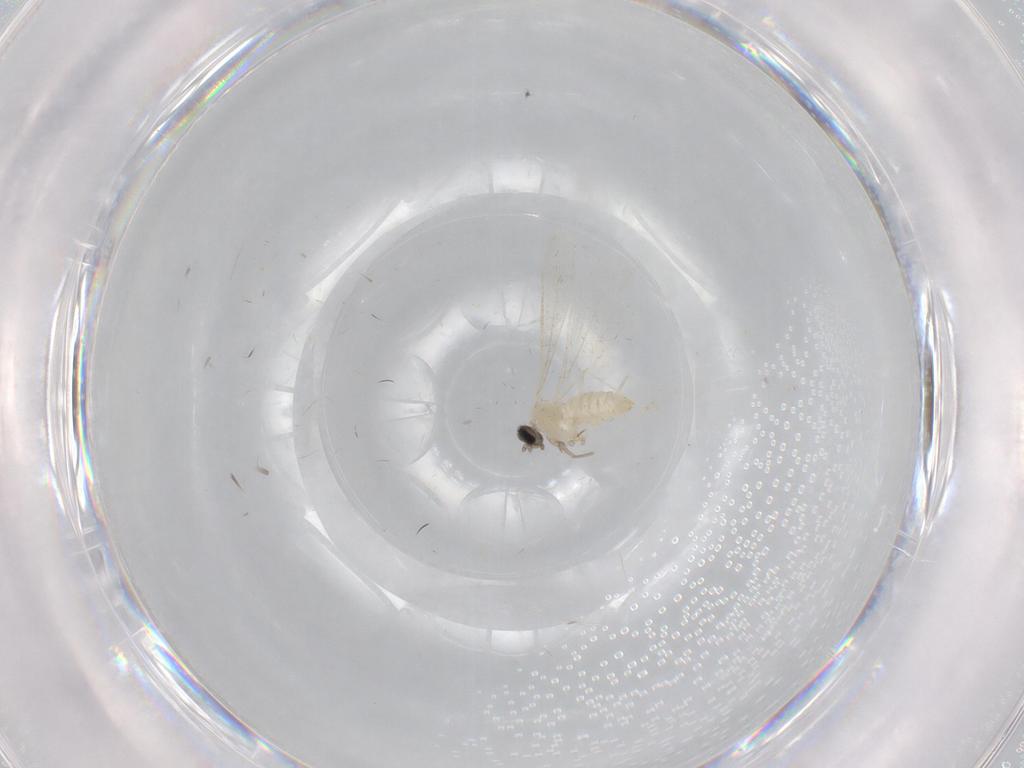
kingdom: Animalia
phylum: Arthropoda
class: Insecta
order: Diptera
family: Cecidomyiidae
